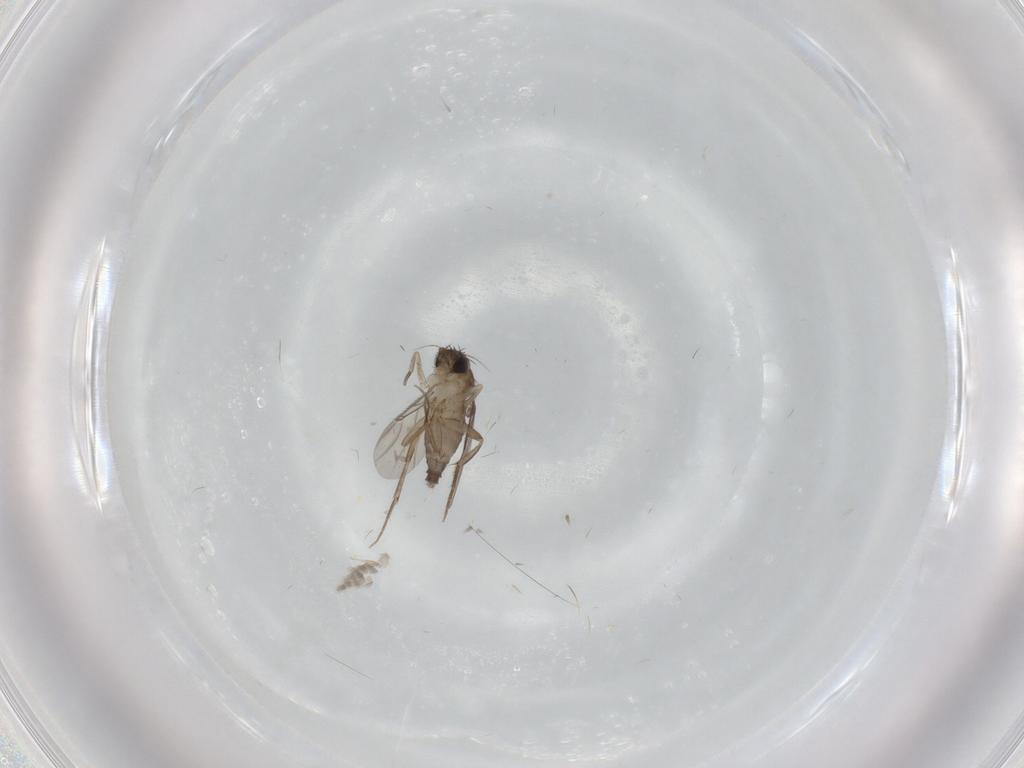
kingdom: Animalia
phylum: Arthropoda
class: Insecta
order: Diptera
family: Phoridae
